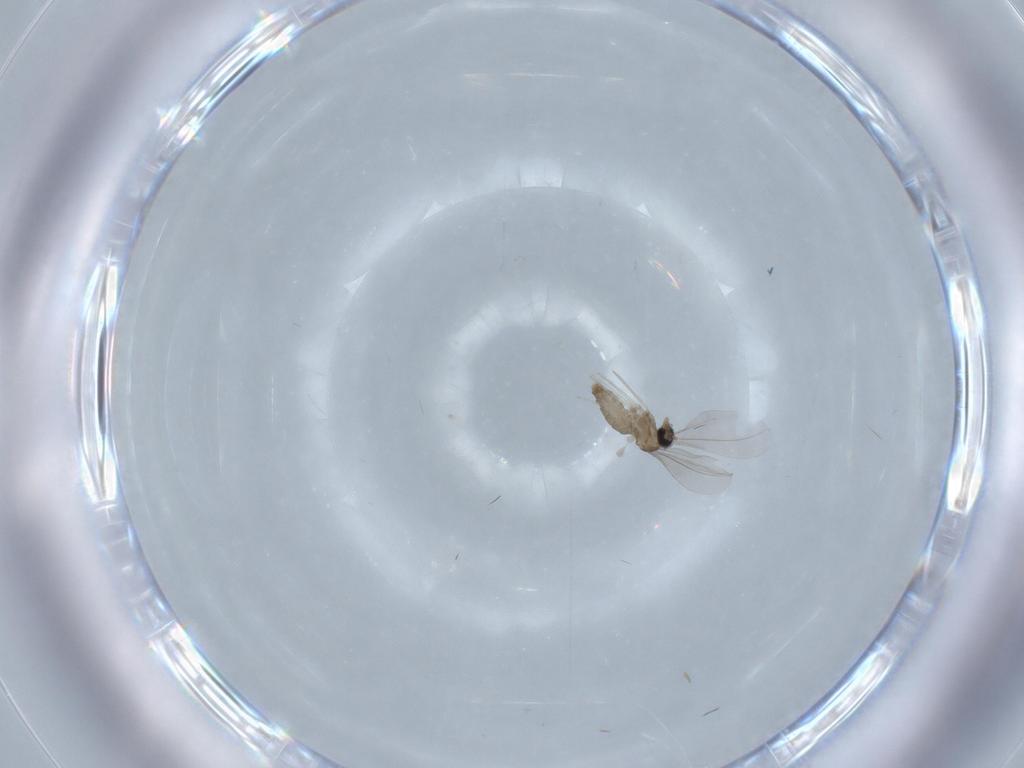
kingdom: Animalia
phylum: Arthropoda
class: Insecta
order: Diptera
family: Cecidomyiidae
